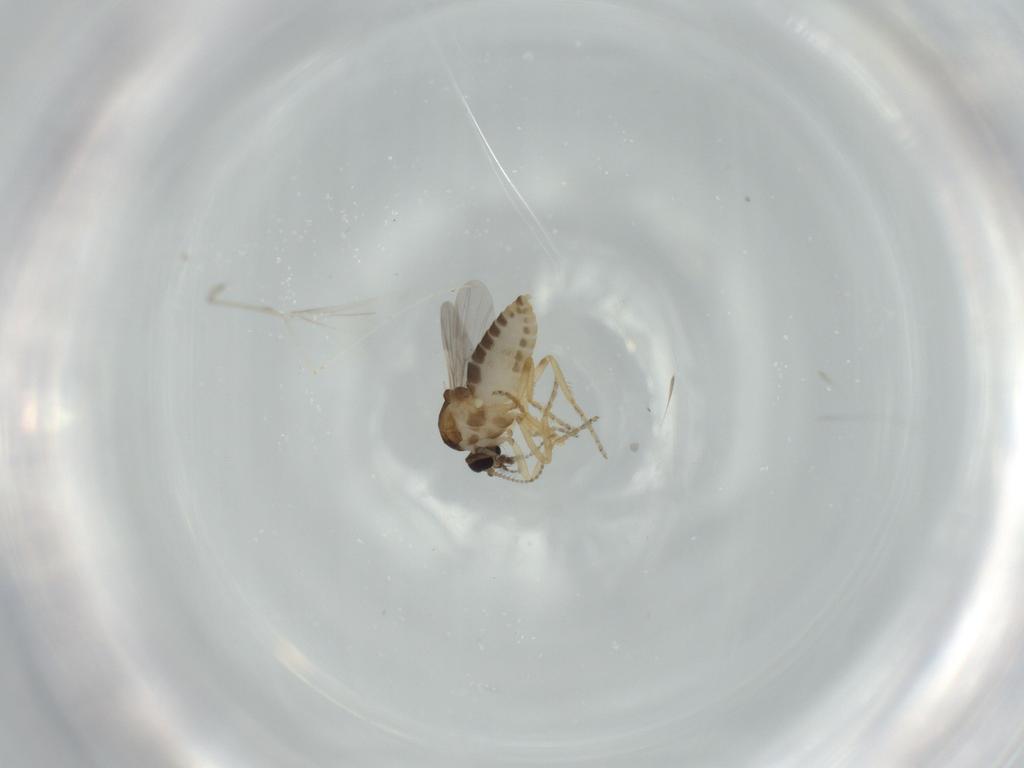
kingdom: Animalia
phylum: Arthropoda
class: Insecta
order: Diptera
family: Ceratopogonidae
